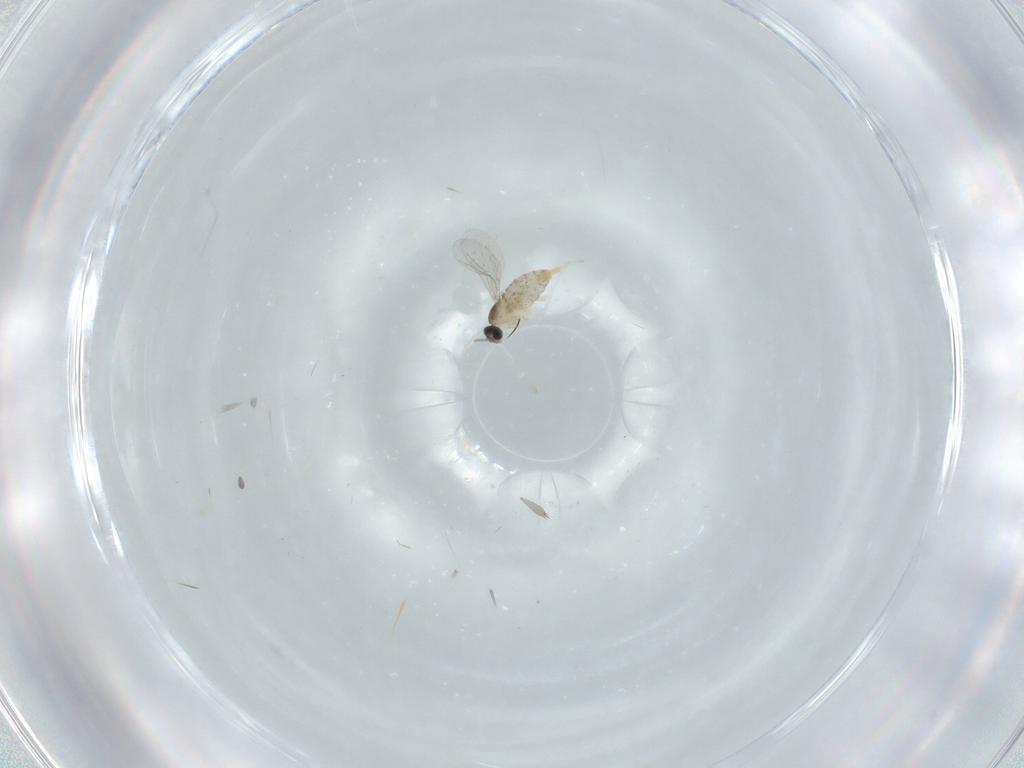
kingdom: Animalia
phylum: Arthropoda
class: Insecta
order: Diptera
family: Cecidomyiidae
